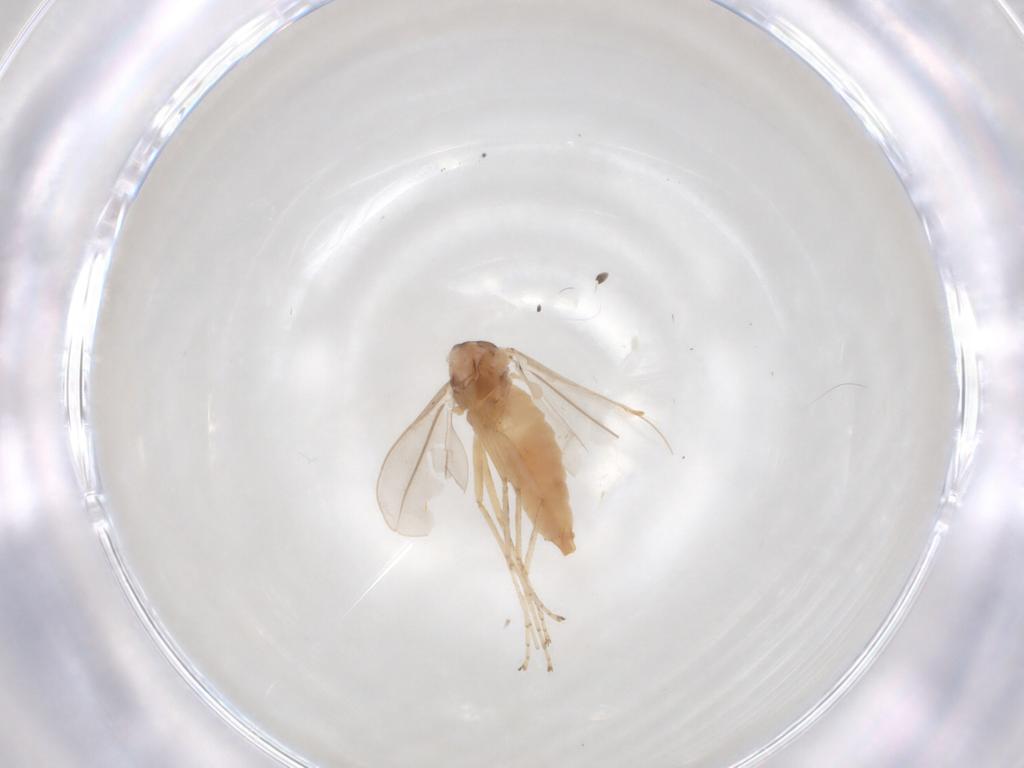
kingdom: Animalia
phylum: Arthropoda
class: Insecta
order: Diptera
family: Cecidomyiidae
